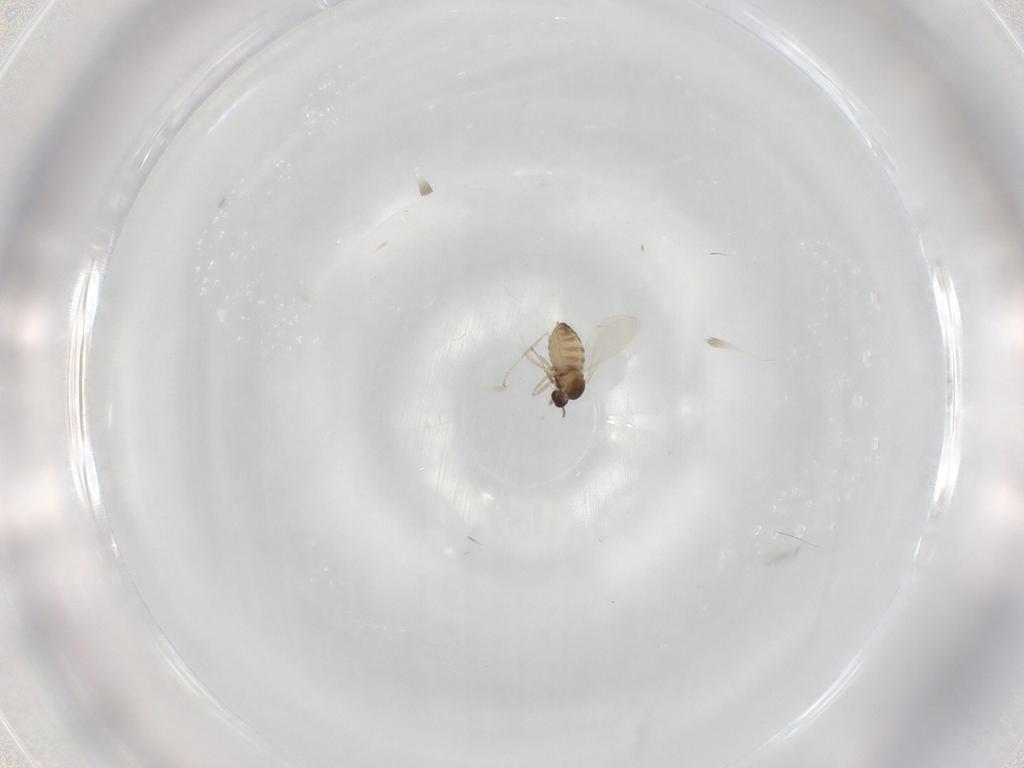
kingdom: Animalia
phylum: Arthropoda
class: Insecta
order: Diptera
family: Cecidomyiidae
